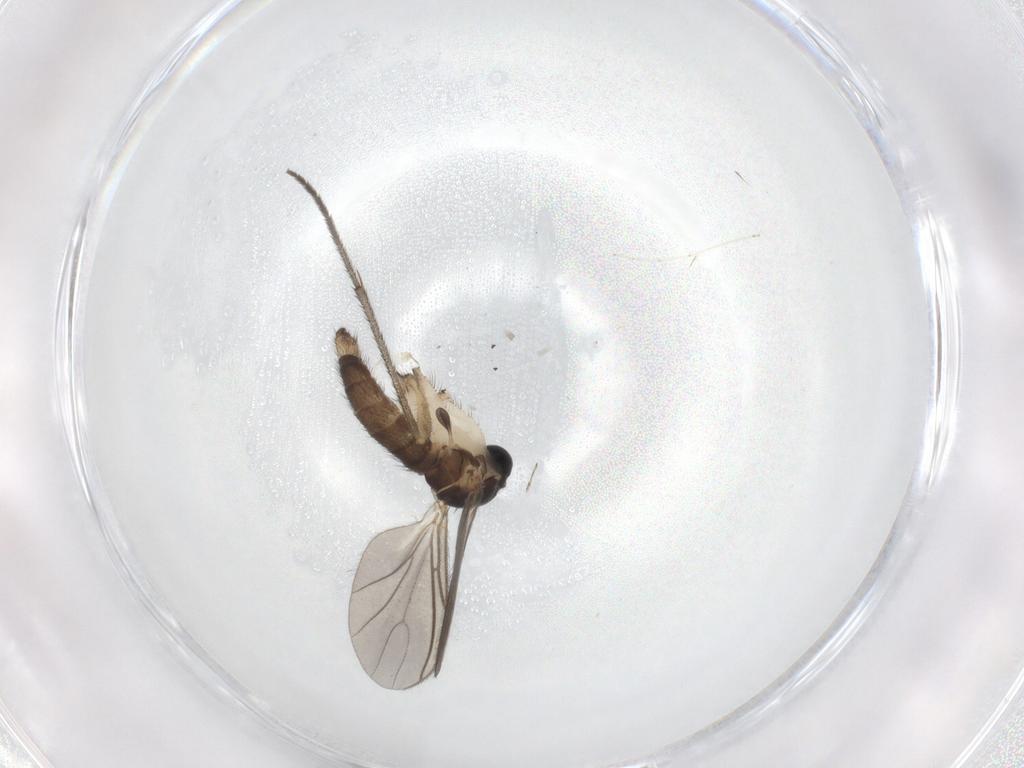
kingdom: Animalia
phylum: Arthropoda
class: Insecta
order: Diptera
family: Sciaridae
